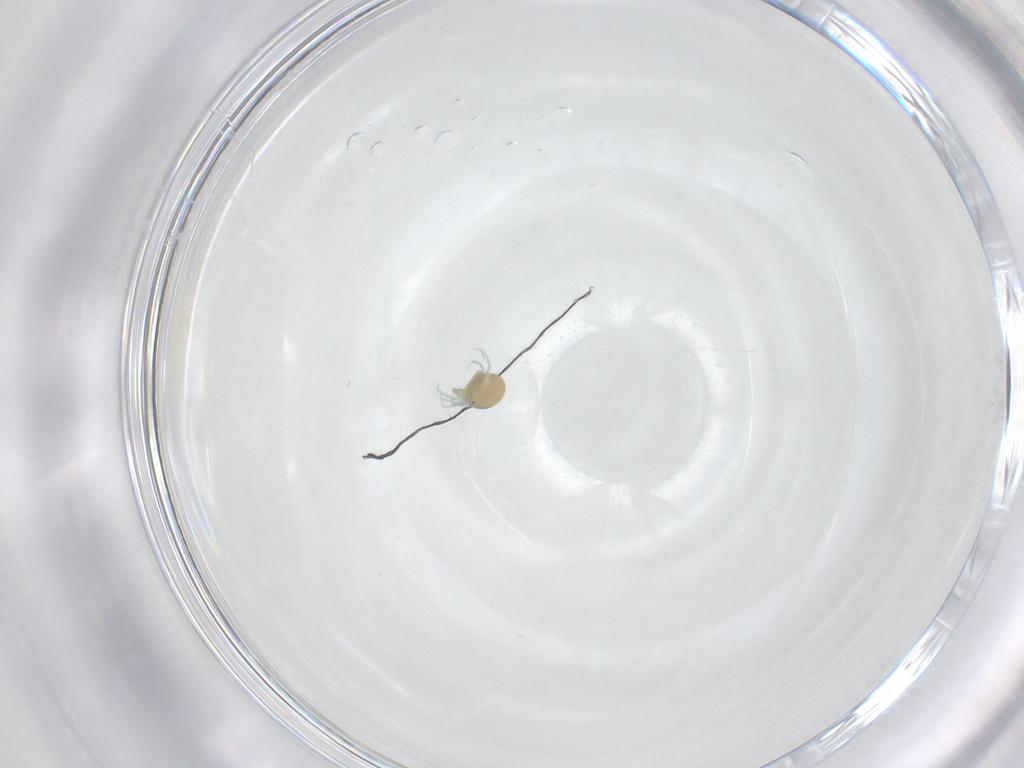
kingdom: Animalia
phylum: Arthropoda
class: Arachnida
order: Trombidiformes
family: Limnesiidae
